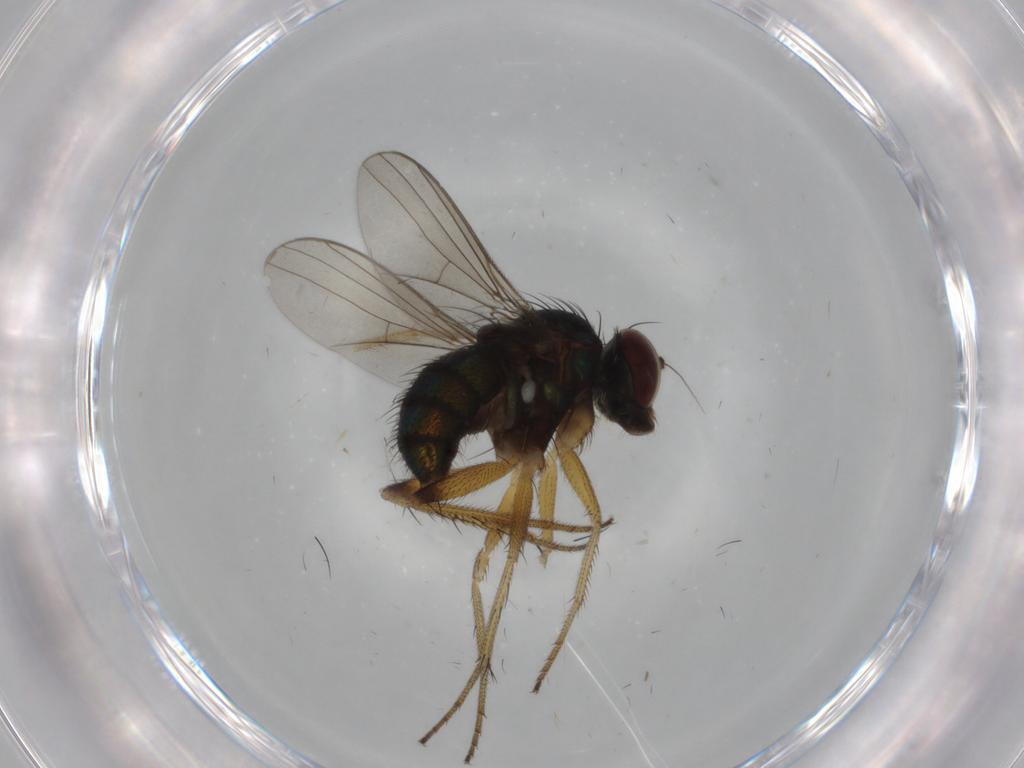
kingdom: Animalia
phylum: Arthropoda
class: Insecta
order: Diptera
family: Dolichopodidae
